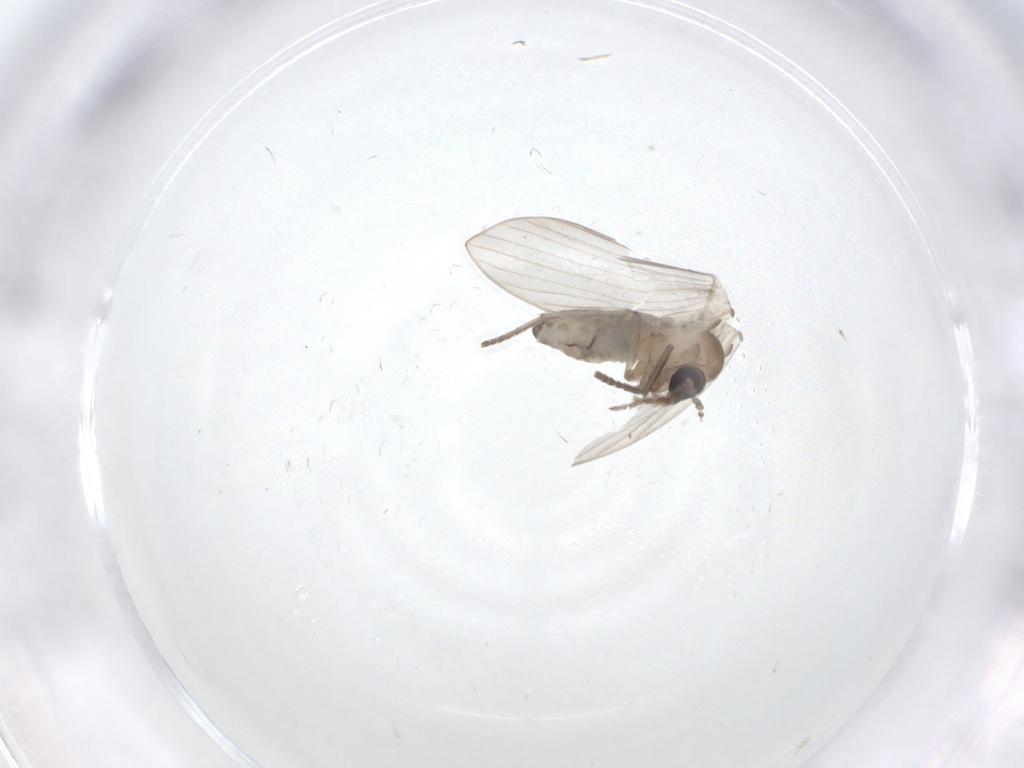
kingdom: Animalia
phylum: Arthropoda
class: Insecta
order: Diptera
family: Psychodidae
